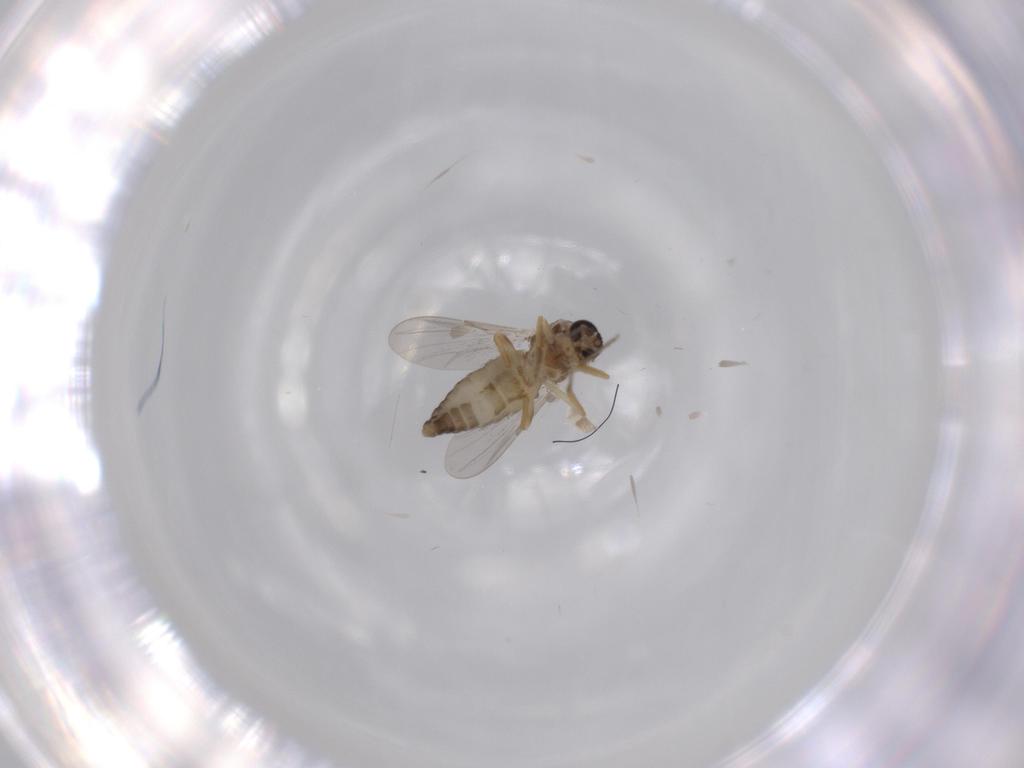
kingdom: Animalia
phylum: Arthropoda
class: Insecta
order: Diptera
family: Ceratopogonidae
